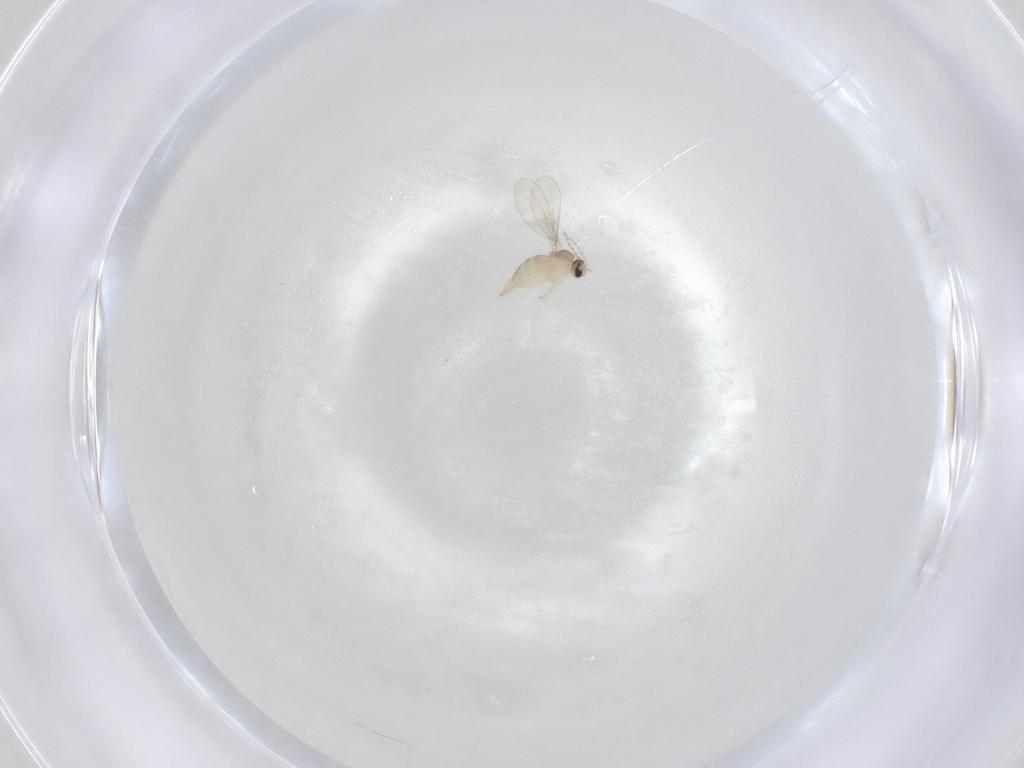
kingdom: Animalia
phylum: Arthropoda
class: Insecta
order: Diptera
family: Cecidomyiidae
